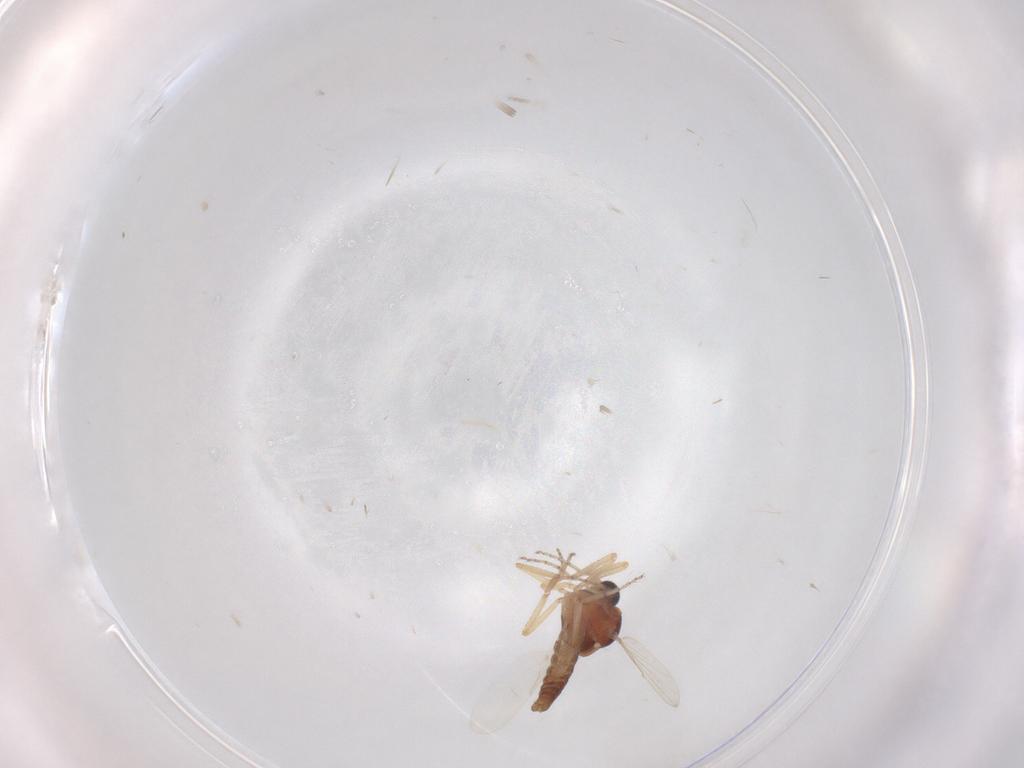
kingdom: Animalia
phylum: Arthropoda
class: Insecta
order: Diptera
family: Ceratopogonidae
